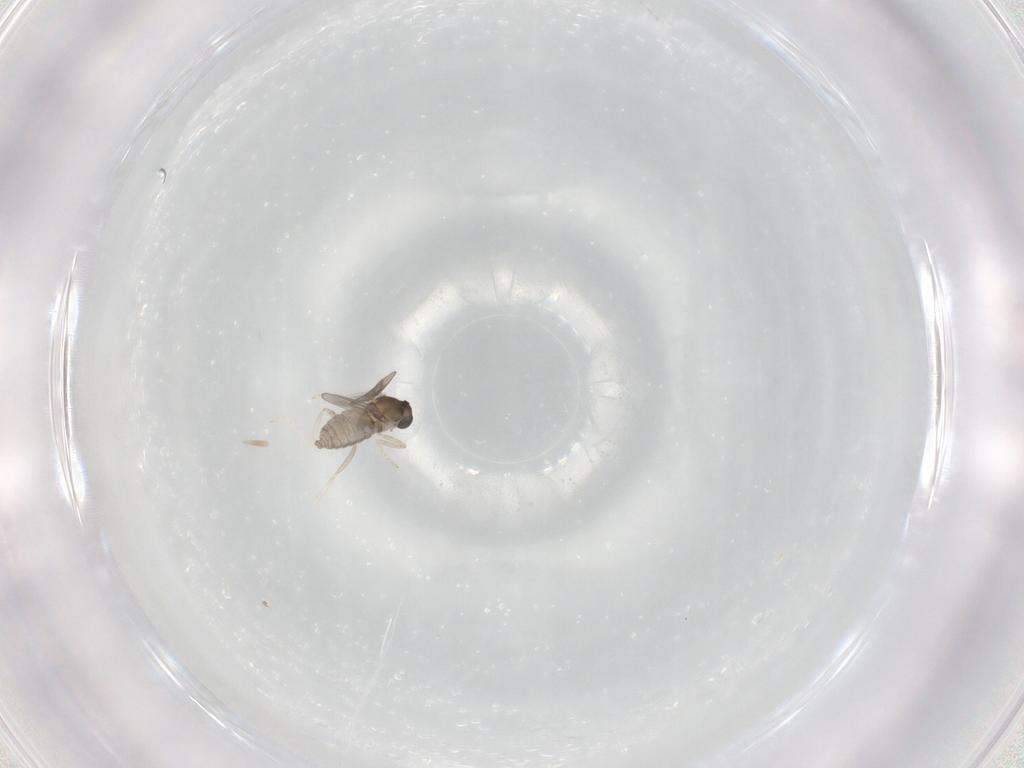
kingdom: Animalia
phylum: Arthropoda
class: Insecta
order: Diptera
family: Cecidomyiidae
